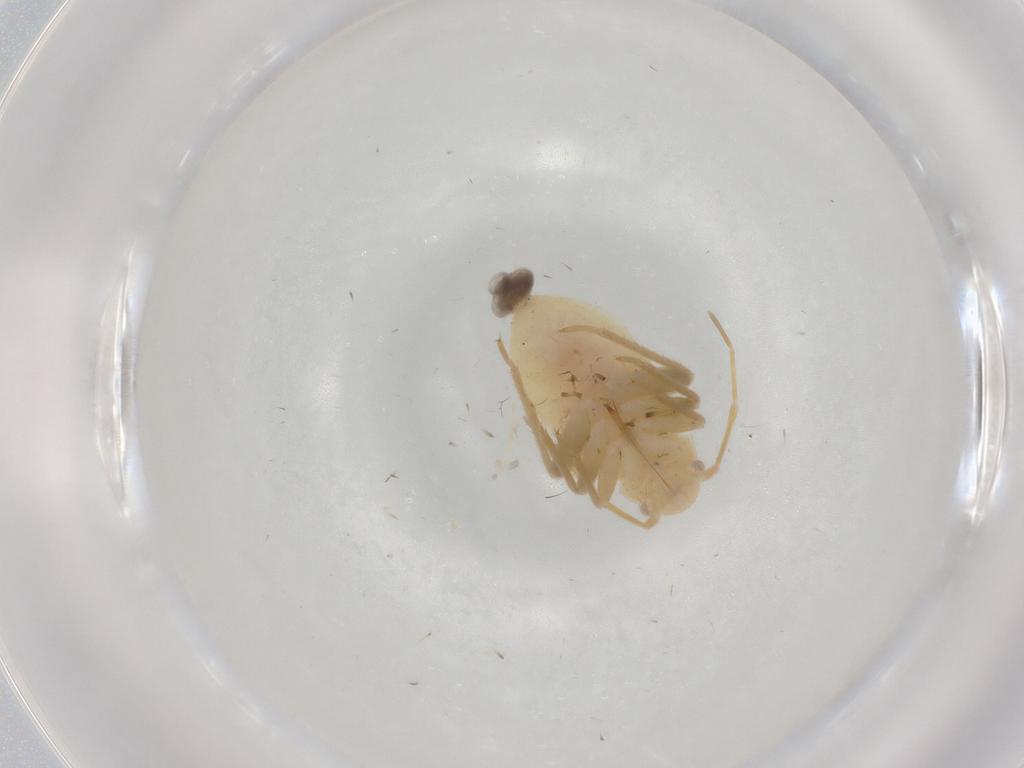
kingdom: Animalia
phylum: Arthropoda
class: Insecta
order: Hemiptera
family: Miridae
